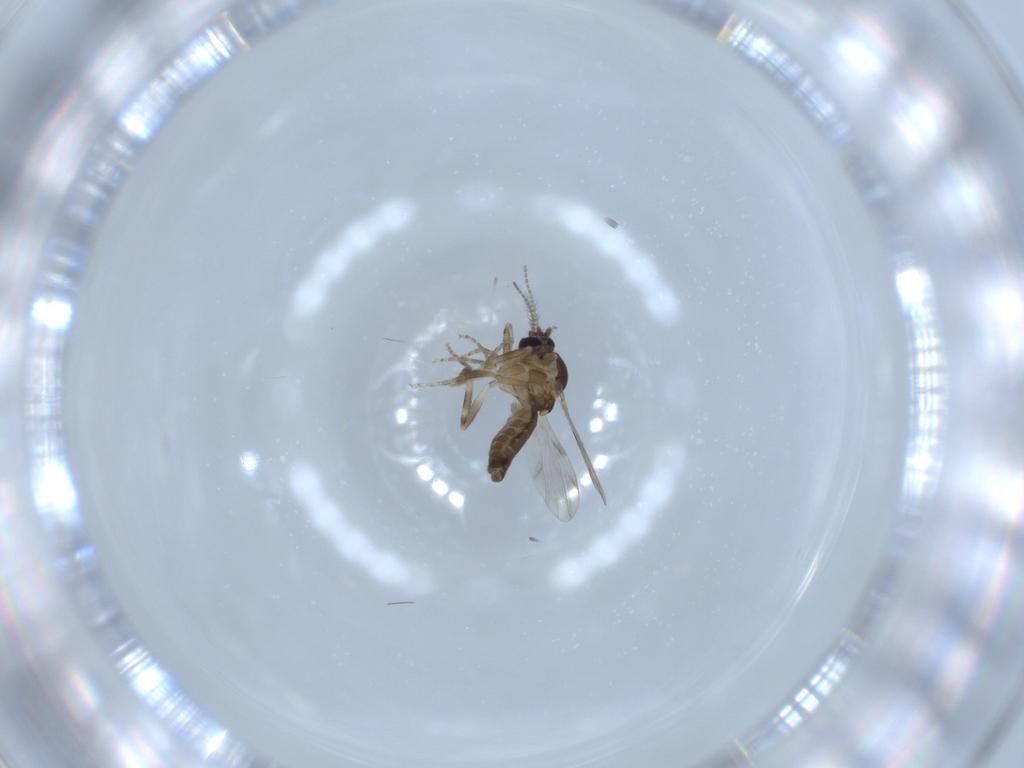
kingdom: Animalia
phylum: Arthropoda
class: Insecta
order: Diptera
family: Ceratopogonidae
